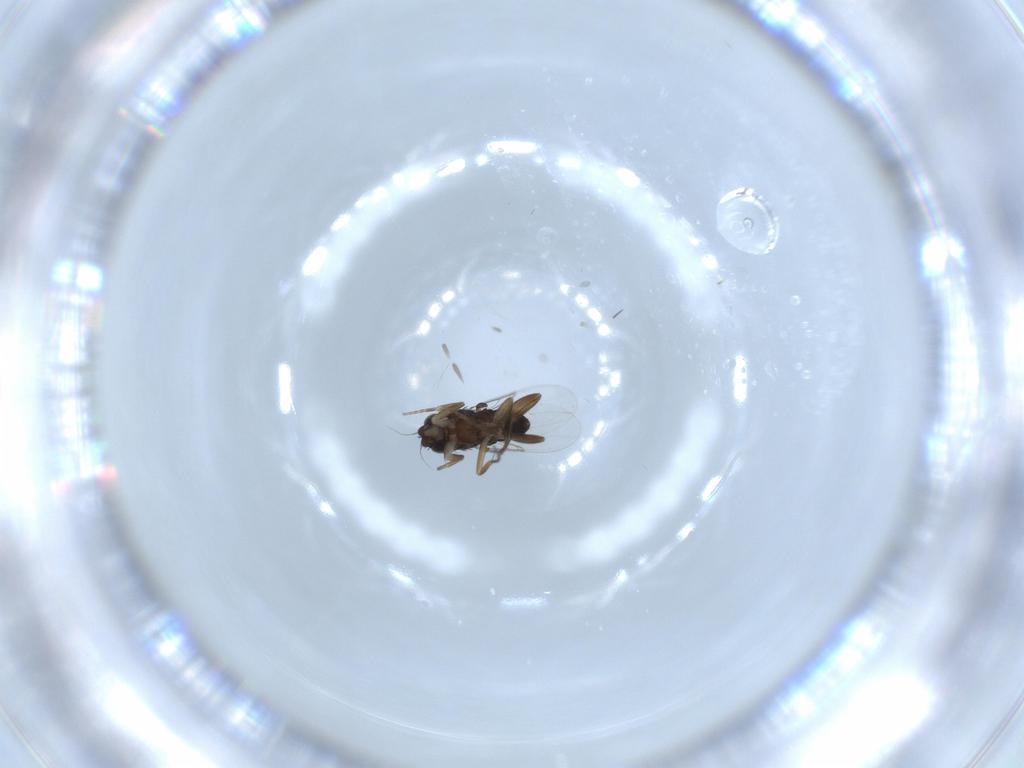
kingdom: Animalia
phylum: Arthropoda
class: Insecta
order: Diptera
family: Phoridae
